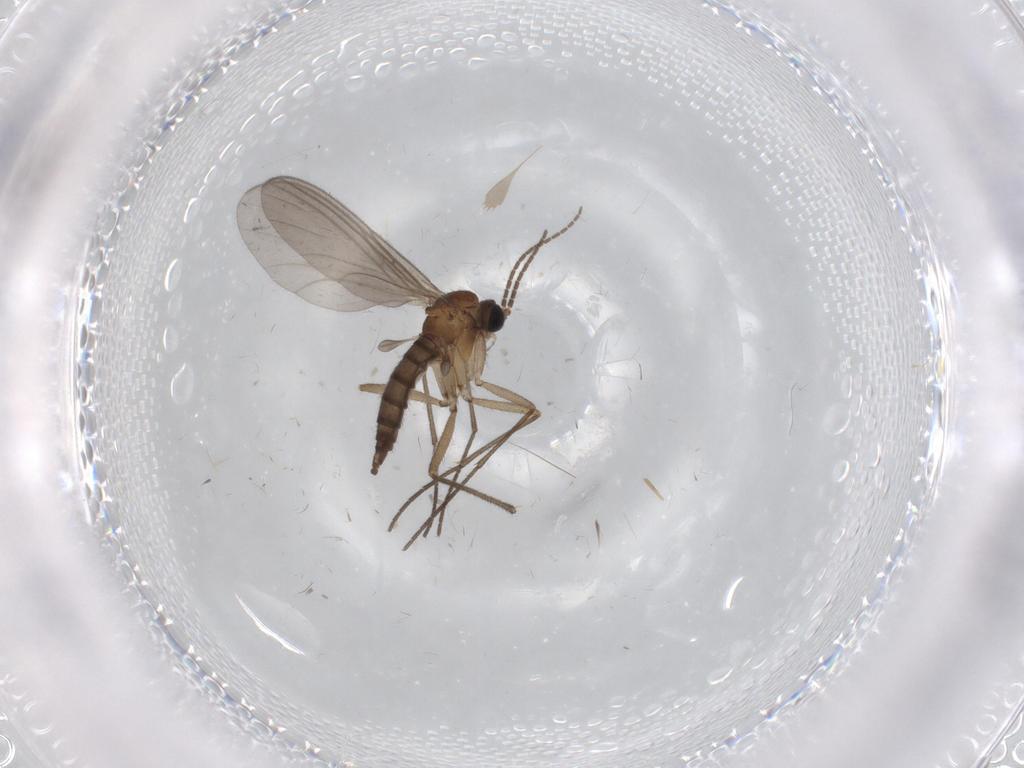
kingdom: Animalia
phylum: Arthropoda
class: Insecta
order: Diptera
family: Sciaridae
